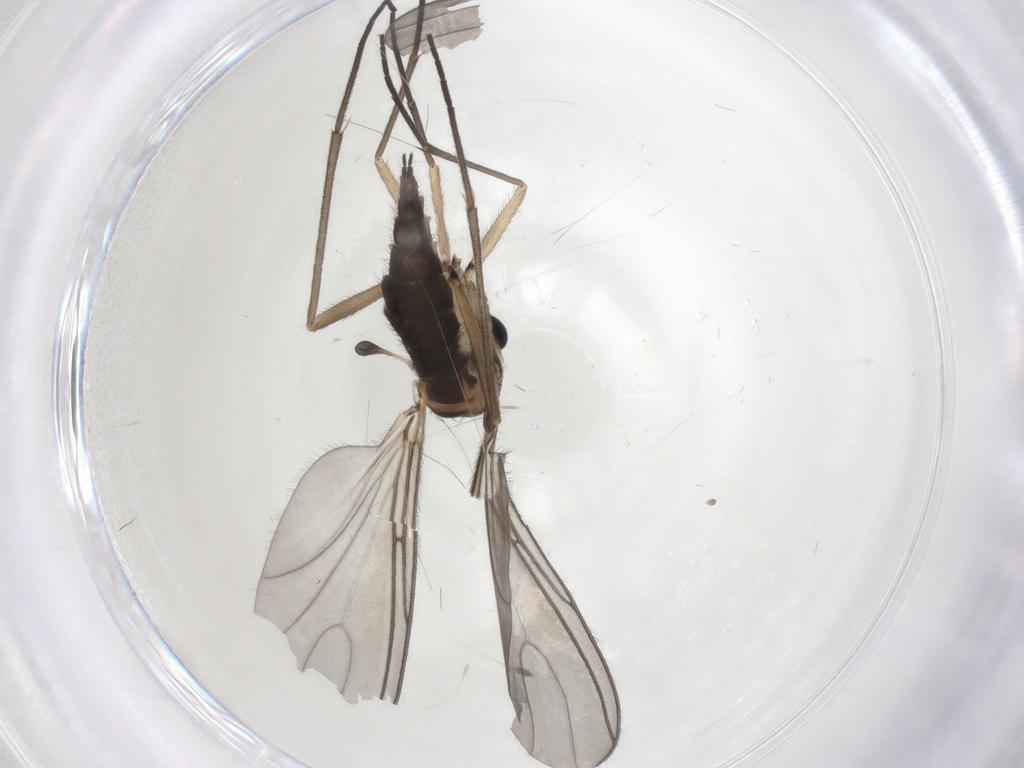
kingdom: Animalia
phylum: Arthropoda
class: Insecta
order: Diptera
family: Sciaridae
